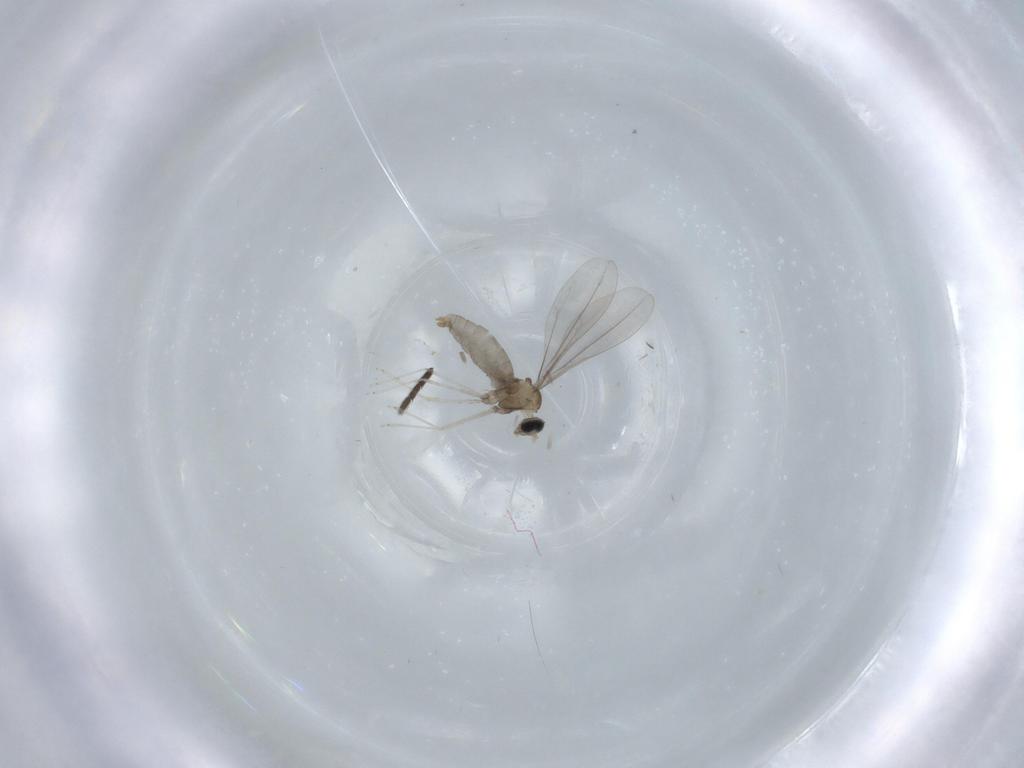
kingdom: Animalia
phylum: Arthropoda
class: Insecta
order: Diptera
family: Cecidomyiidae
